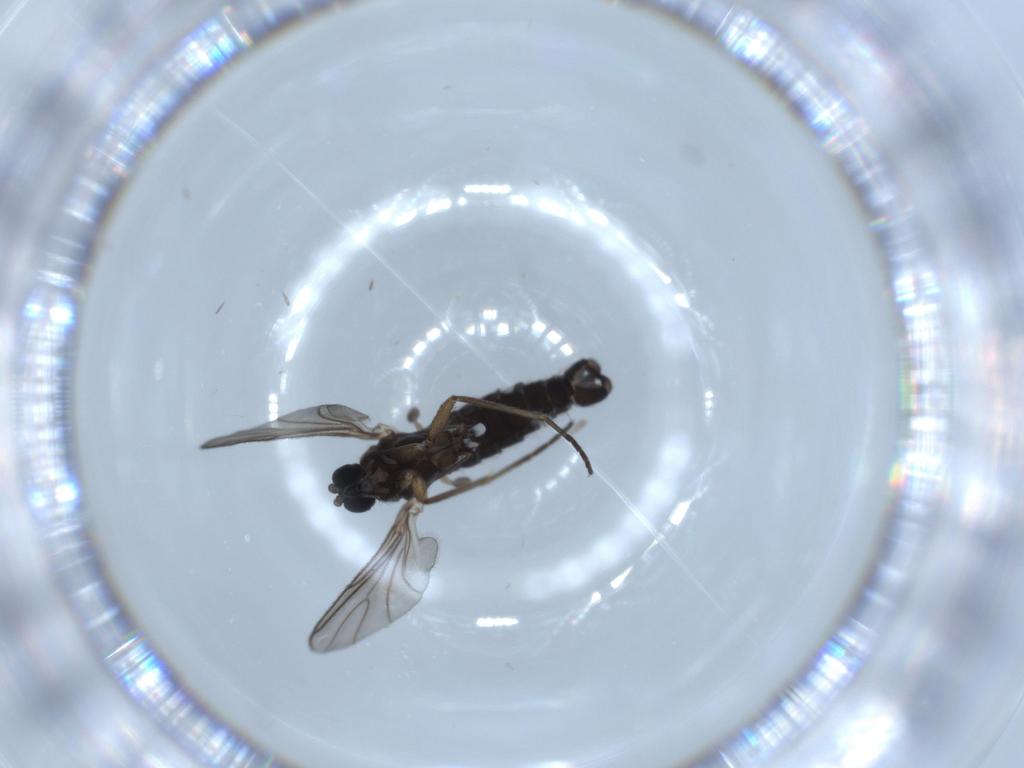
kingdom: Animalia
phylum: Arthropoda
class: Insecta
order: Diptera
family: Sciaridae
